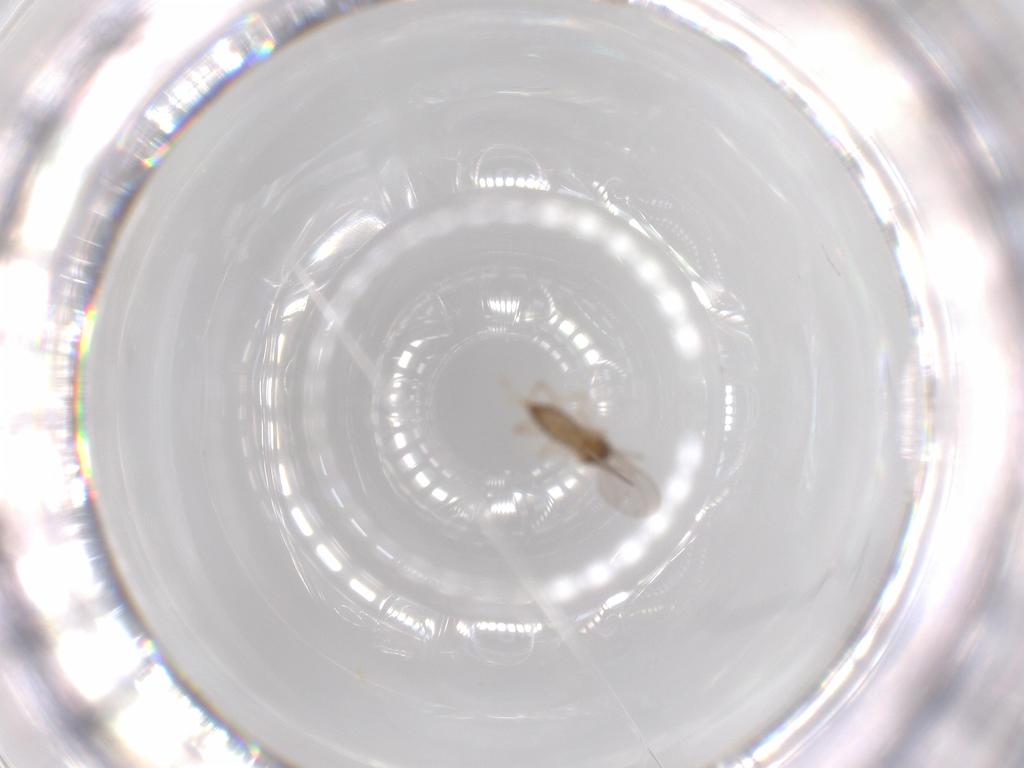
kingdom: Animalia
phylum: Arthropoda
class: Insecta
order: Diptera
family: Cecidomyiidae
